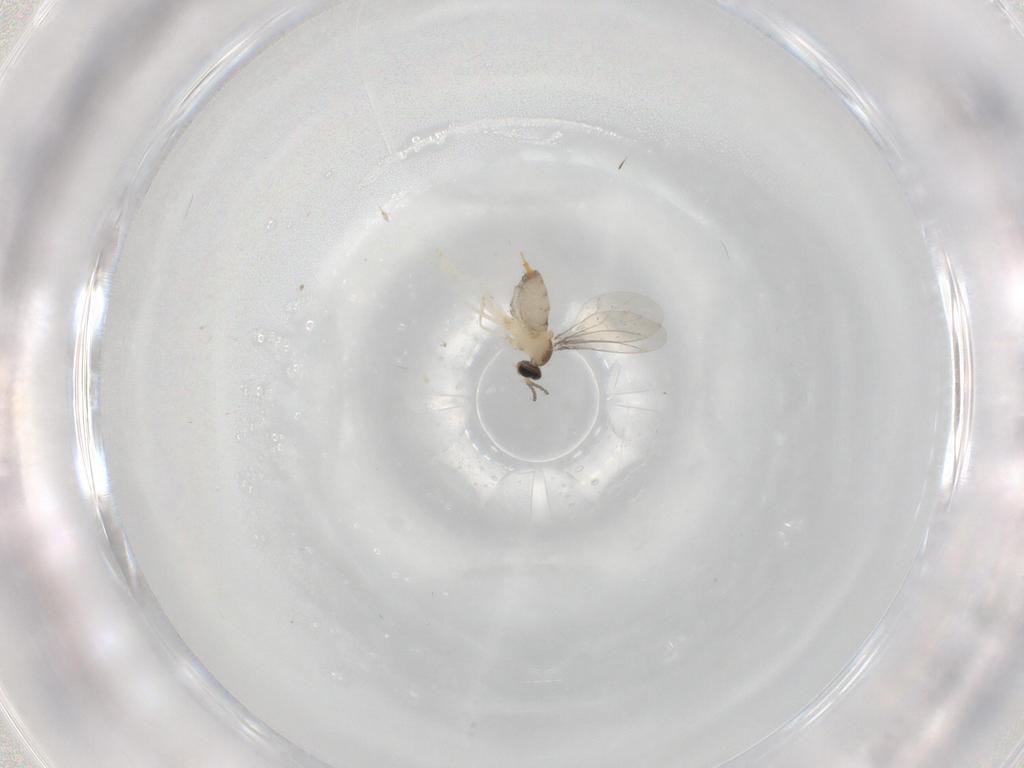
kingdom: Animalia
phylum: Arthropoda
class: Insecta
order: Diptera
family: Cecidomyiidae
